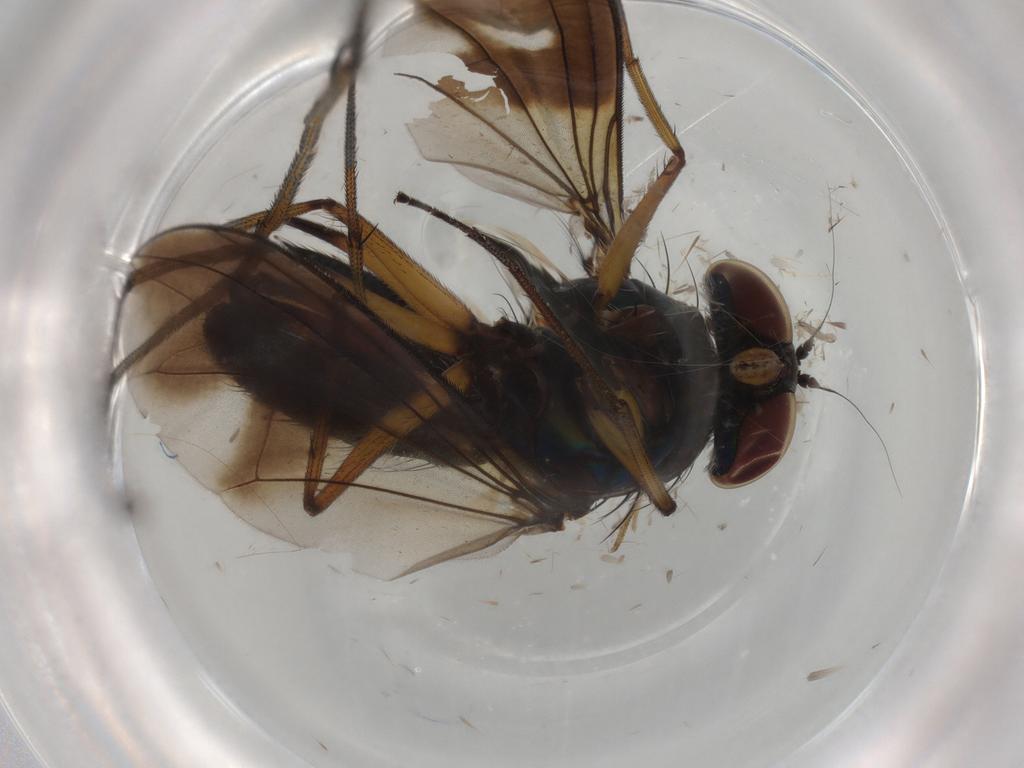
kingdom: Animalia
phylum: Arthropoda
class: Insecta
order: Diptera
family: Dolichopodidae
